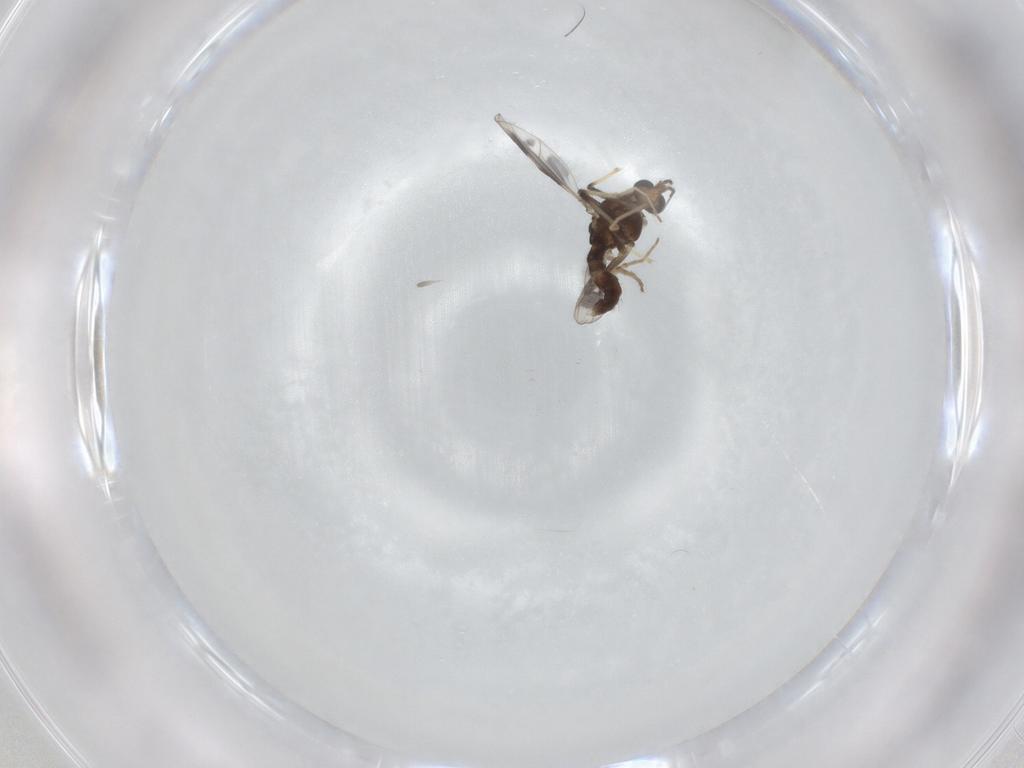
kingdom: Animalia
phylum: Arthropoda
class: Insecta
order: Diptera
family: Chironomidae
